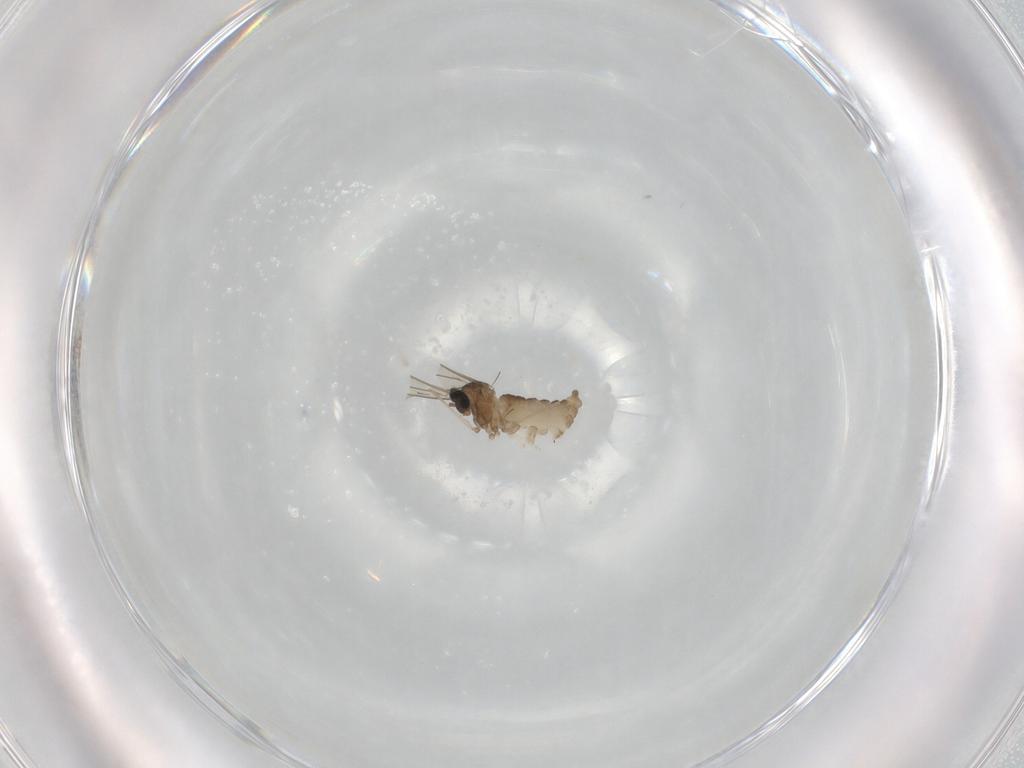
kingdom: Animalia
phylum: Arthropoda
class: Insecta
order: Diptera
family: Cecidomyiidae
